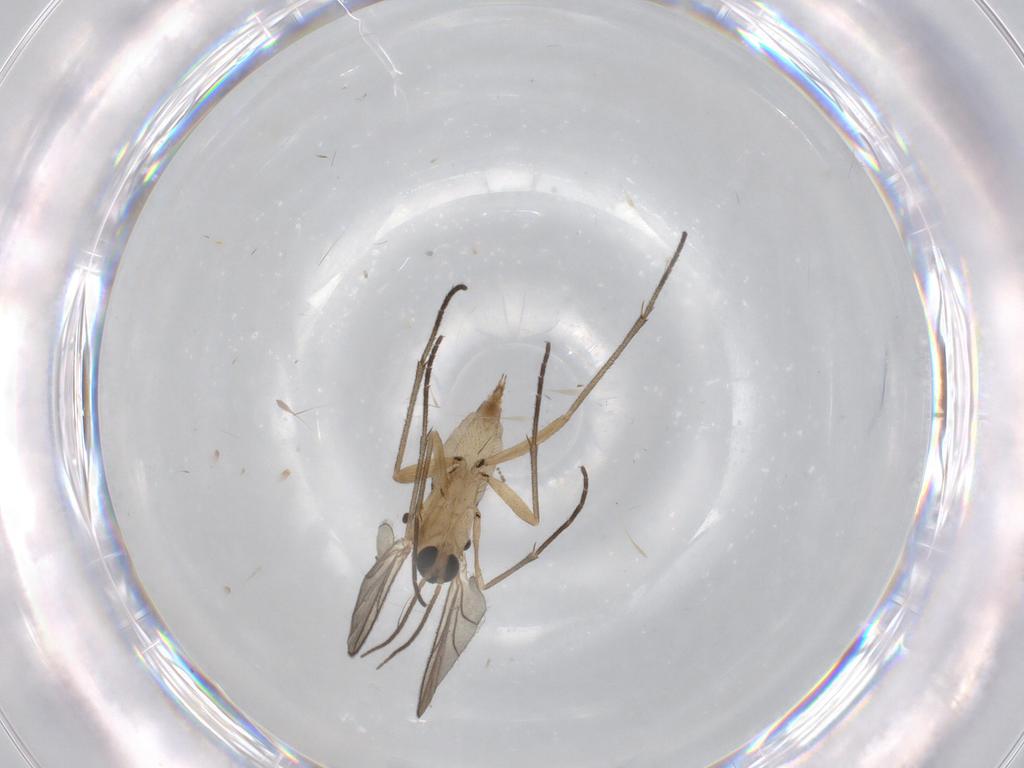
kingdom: Animalia
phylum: Arthropoda
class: Insecta
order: Diptera
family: Sciaridae
